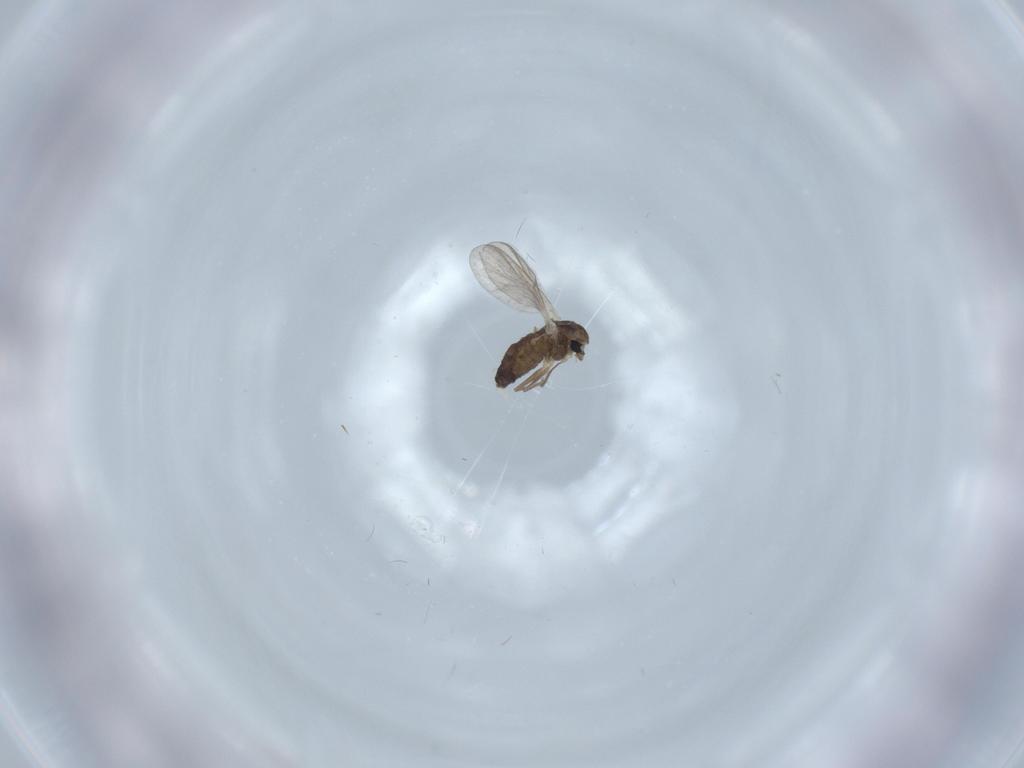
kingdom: Animalia
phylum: Arthropoda
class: Insecta
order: Diptera
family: Chironomidae
